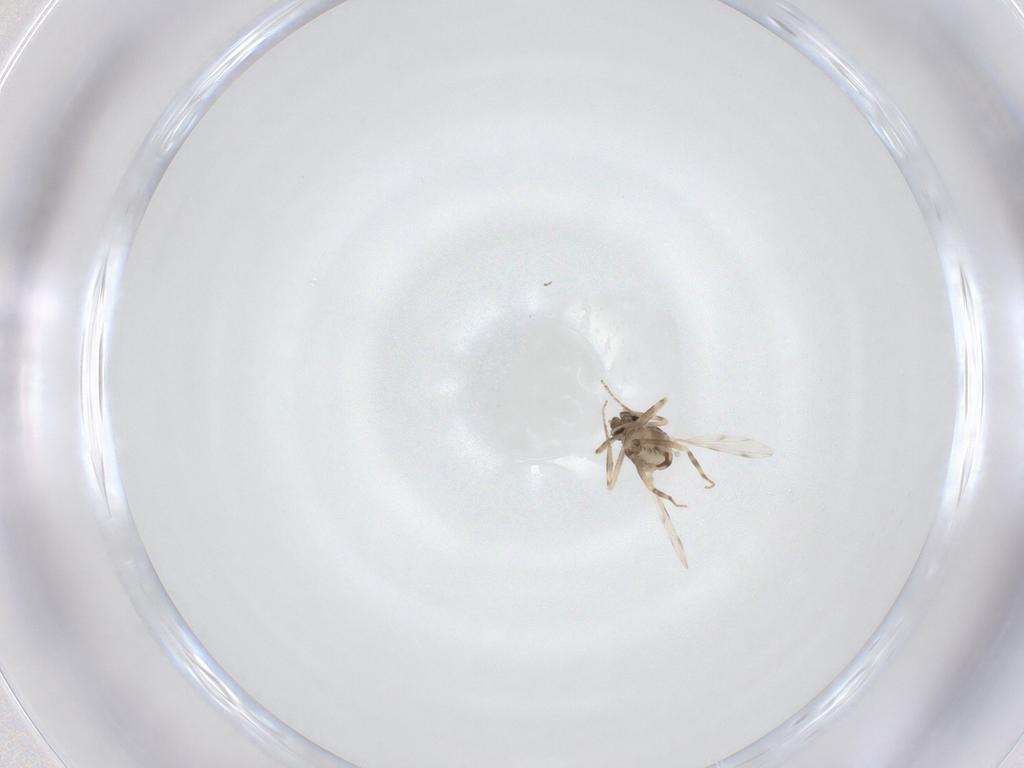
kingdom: Animalia
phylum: Arthropoda
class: Insecta
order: Diptera
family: Ceratopogonidae
